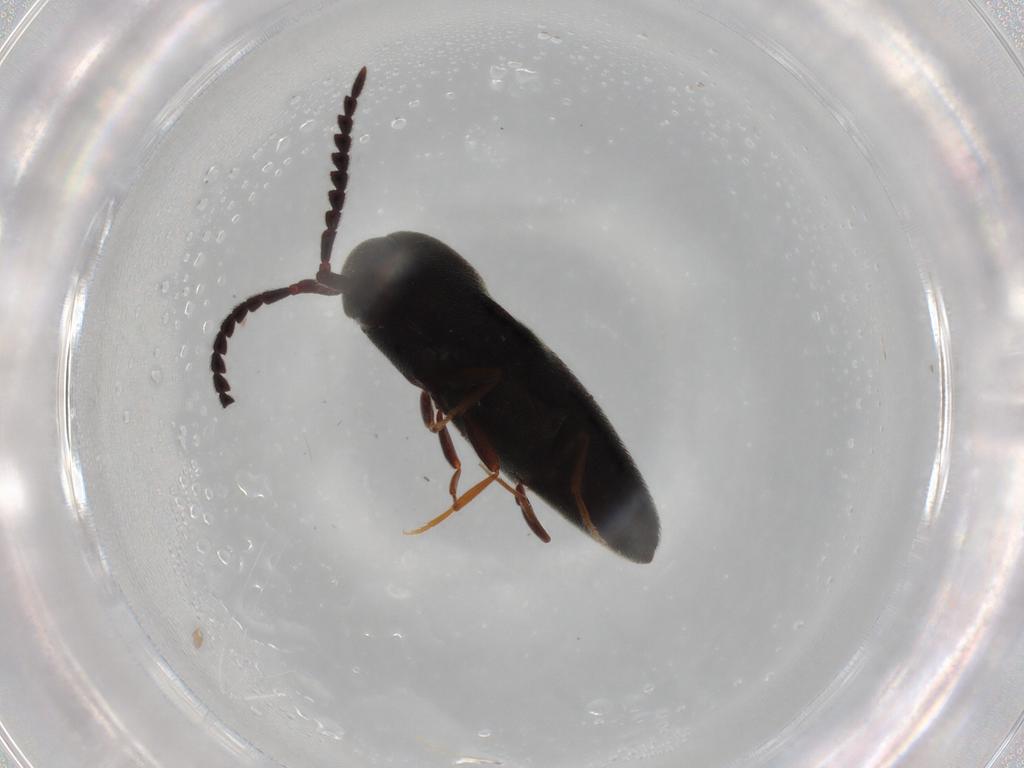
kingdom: Animalia
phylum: Arthropoda
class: Insecta
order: Coleoptera
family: Eucnemidae
